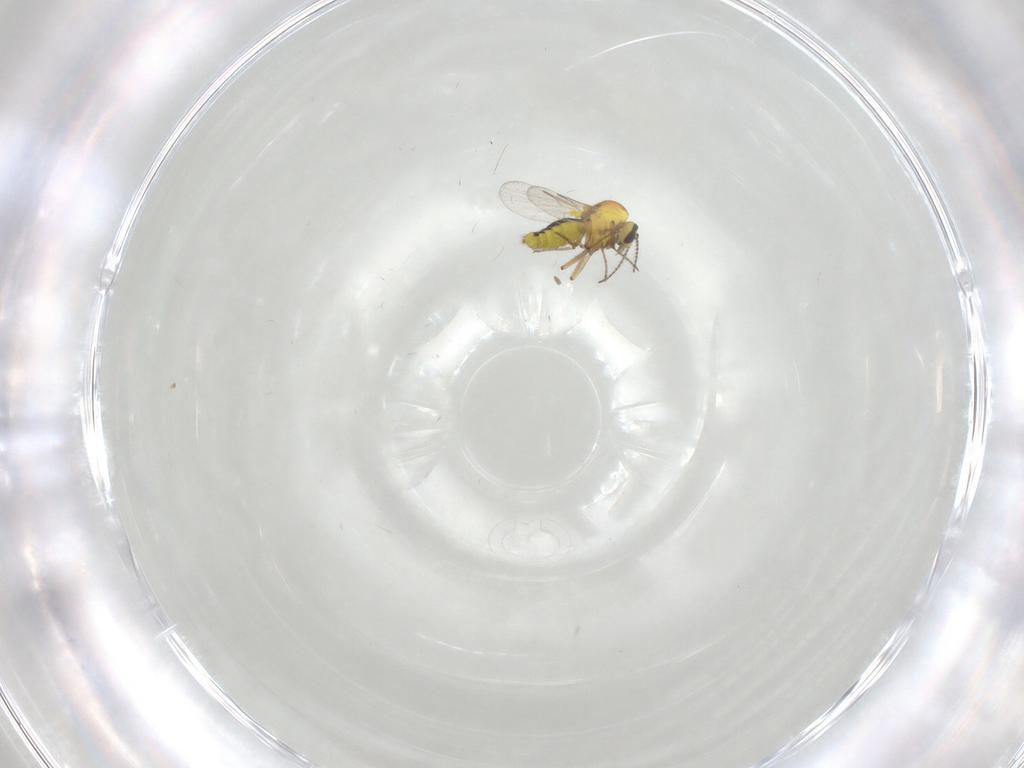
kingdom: Animalia
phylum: Arthropoda
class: Insecta
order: Diptera
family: Ceratopogonidae
